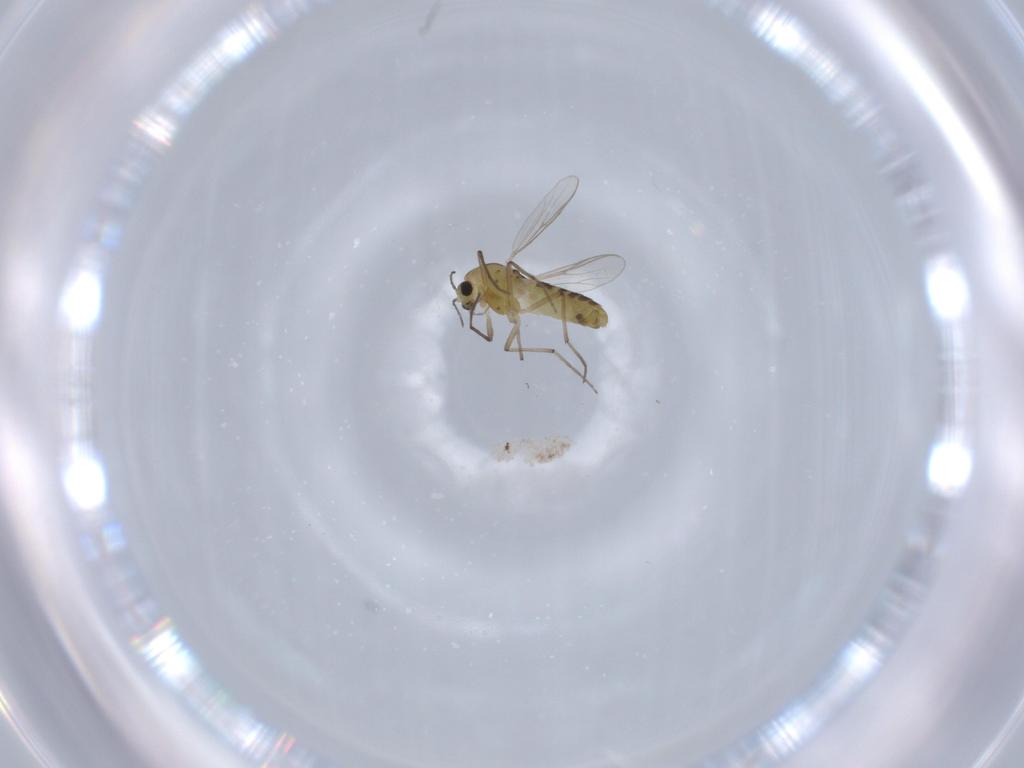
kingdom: Animalia
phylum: Arthropoda
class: Insecta
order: Diptera
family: Chironomidae
